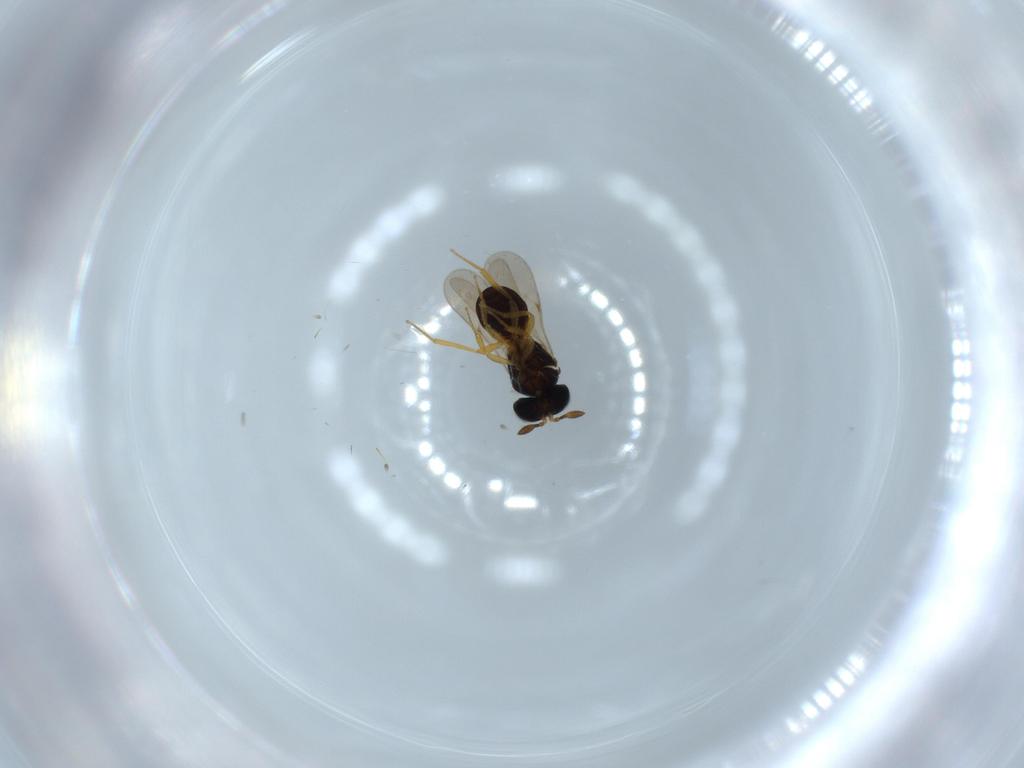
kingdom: Animalia
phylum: Arthropoda
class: Insecta
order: Hymenoptera
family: Scelionidae
